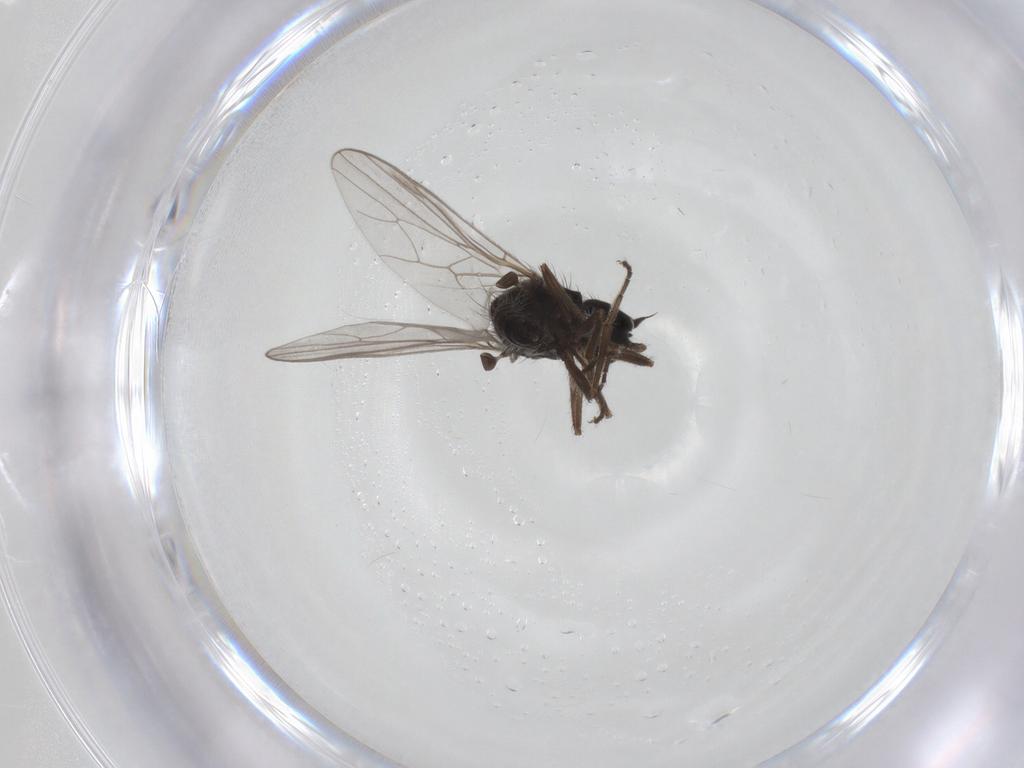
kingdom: Animalia
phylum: Arthropoda
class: Insecta
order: Diptera
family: Hybotidae
